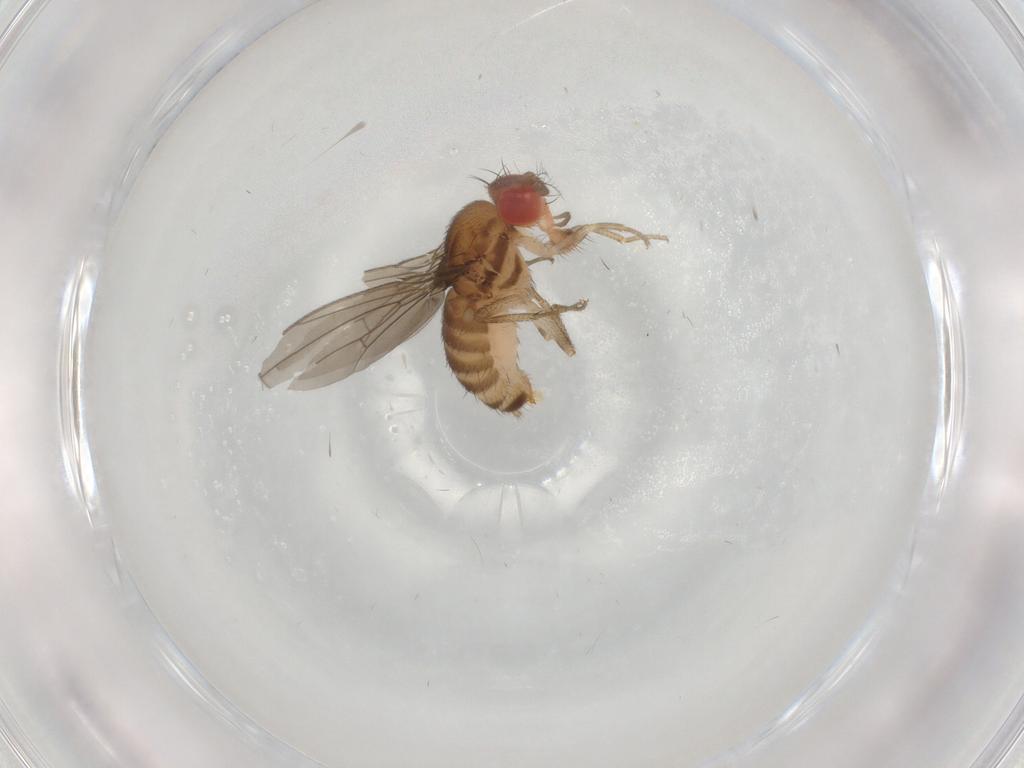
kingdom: Animalia
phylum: Arthropoda
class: Insecta
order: Diptera
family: Drosophilidae
